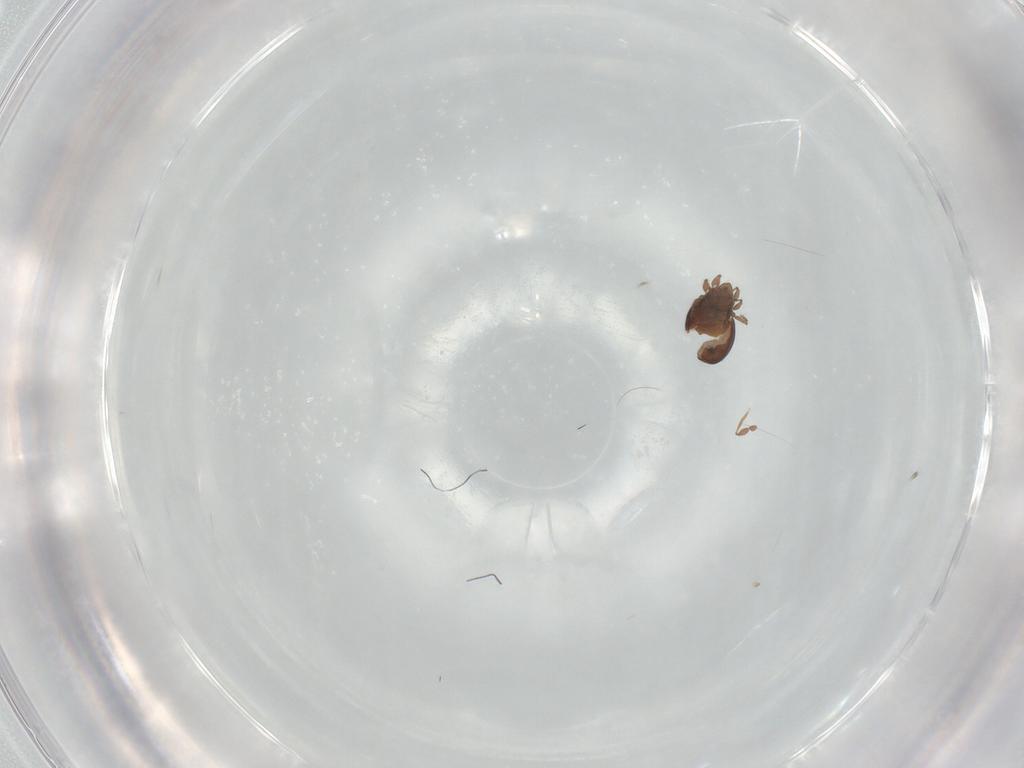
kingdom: Animalia
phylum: Arthropoda
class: Arachnida
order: Sarcoptiformes
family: Oribatulidae
